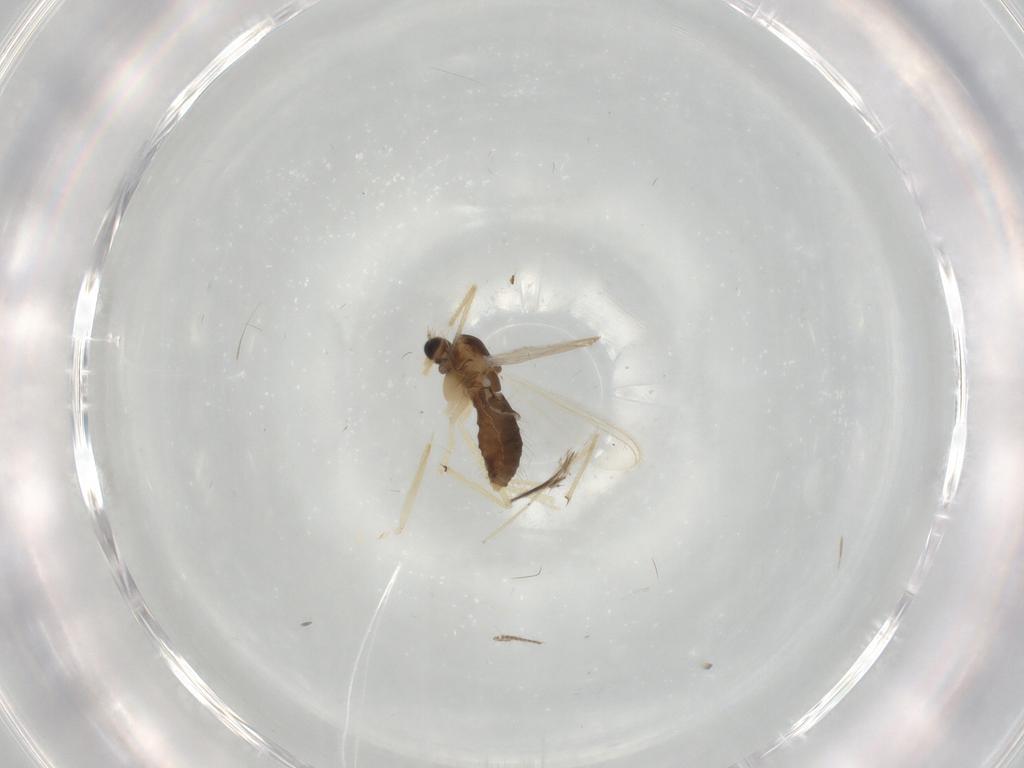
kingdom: Animalia
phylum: Arthropoda
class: Insecta
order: Diptera
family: Chironomidae
